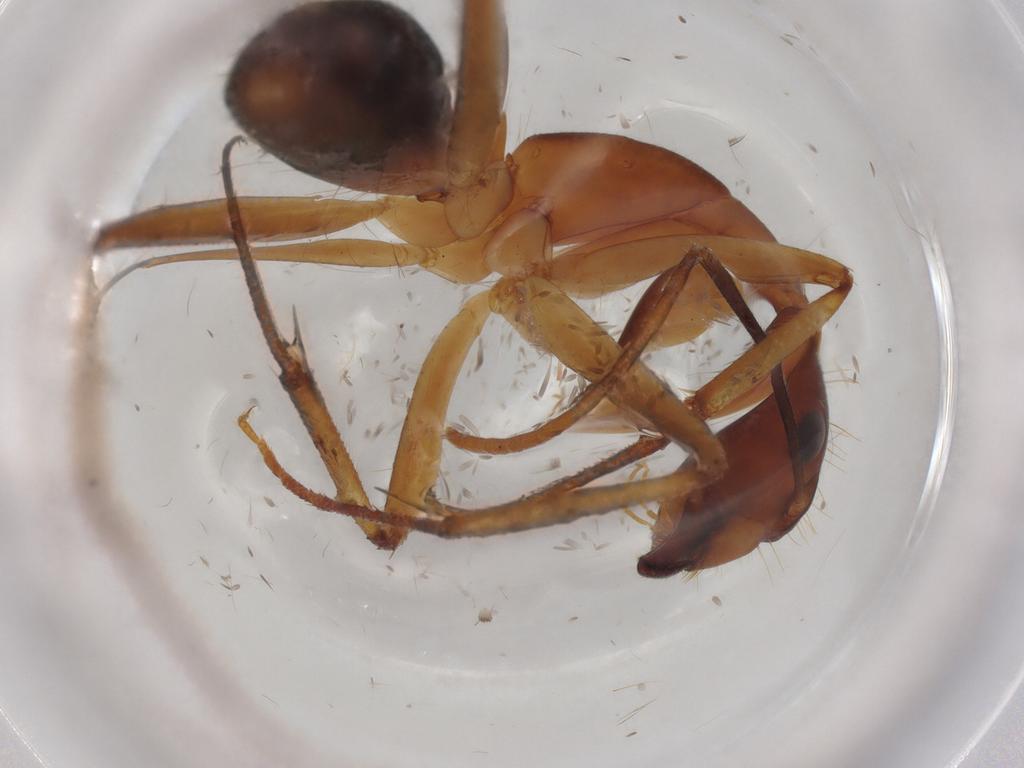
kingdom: Animalia
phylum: Arthropoda
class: Insecta
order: Hymenoptera
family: Formicidae
